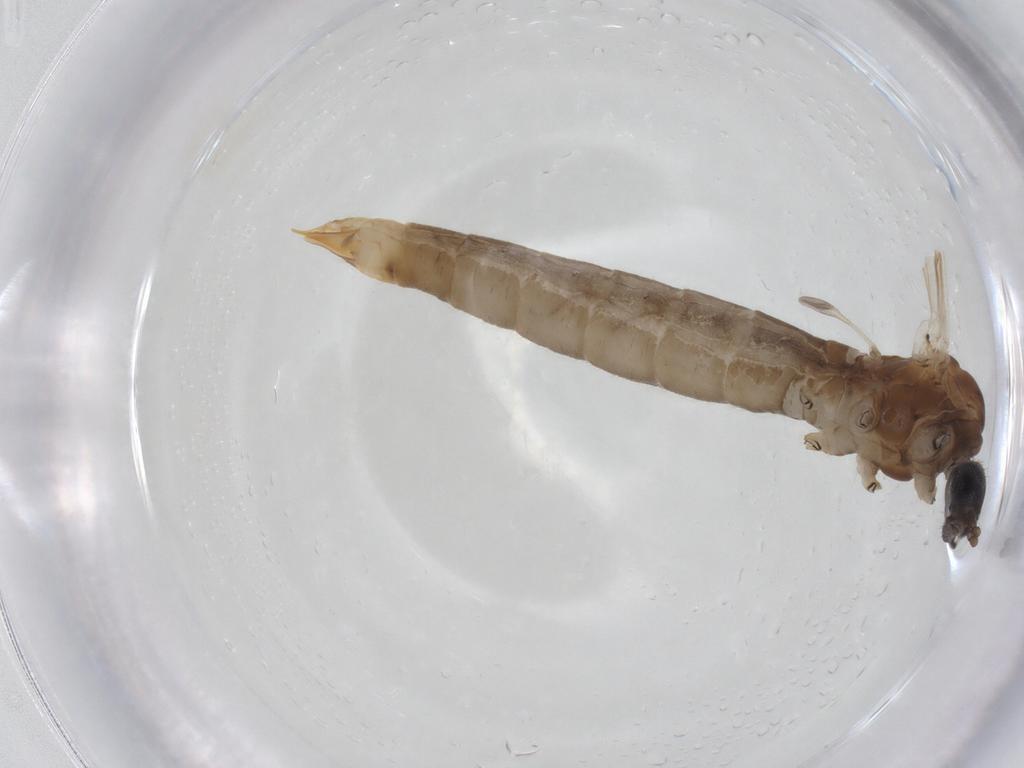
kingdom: Animalia
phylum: Arthropoda
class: Insecta
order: Diptera
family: Limoniidae
